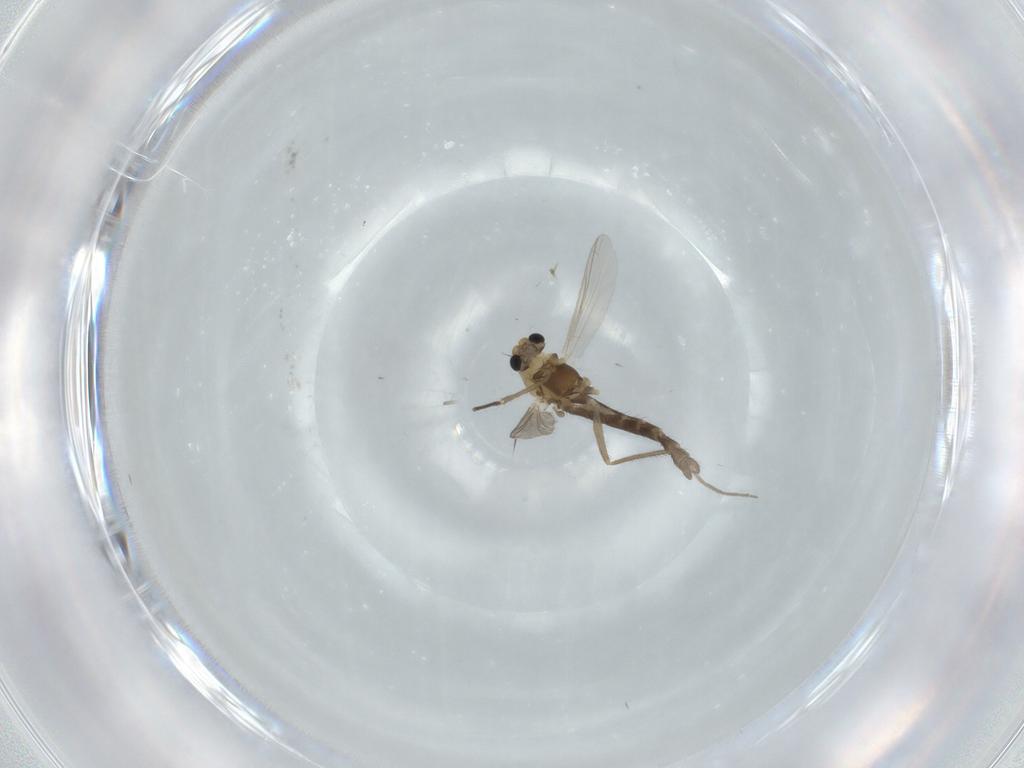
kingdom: Animalia
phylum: Arthropoda
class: Insecta
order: Diptera
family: Chironomidae
